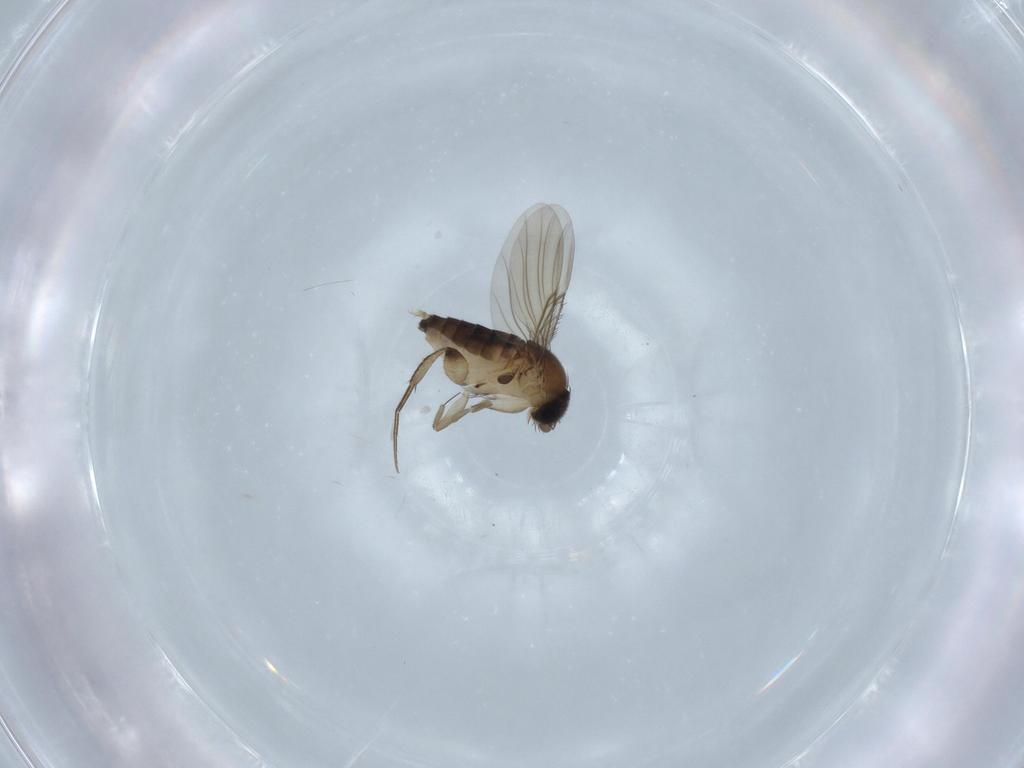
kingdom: Animalia
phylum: Arthropoda
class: Insecta
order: Diptera
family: Phoridae
